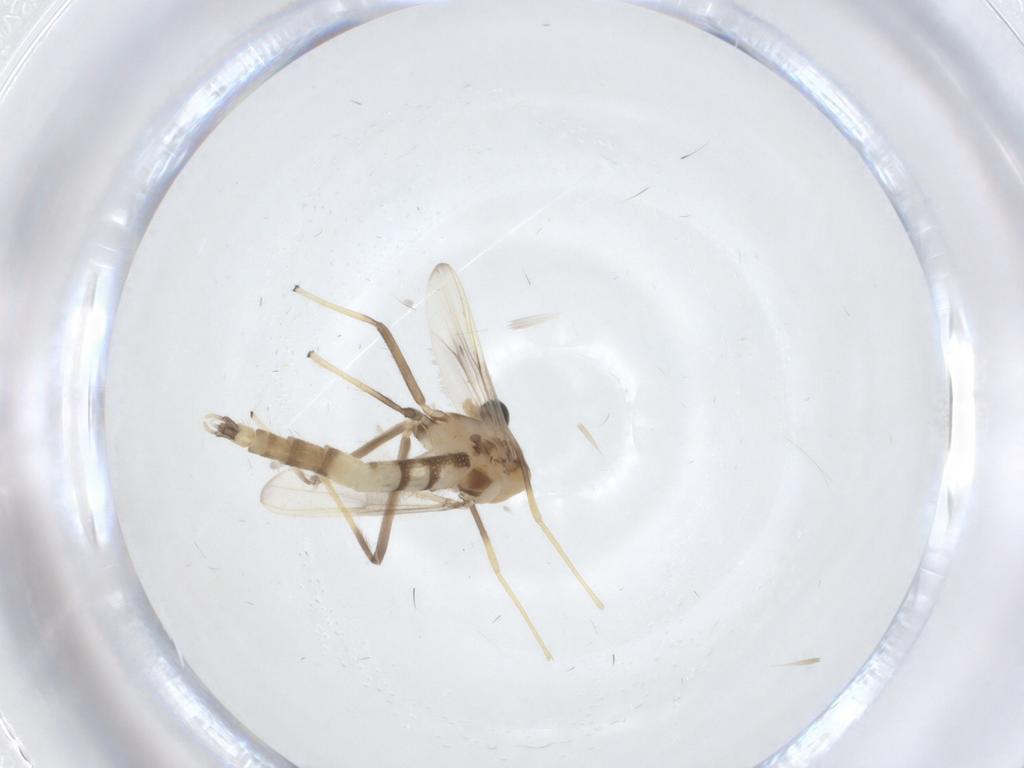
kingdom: Animalia
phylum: Arthropoda
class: Insecta
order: Diptera
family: Chironomidae
